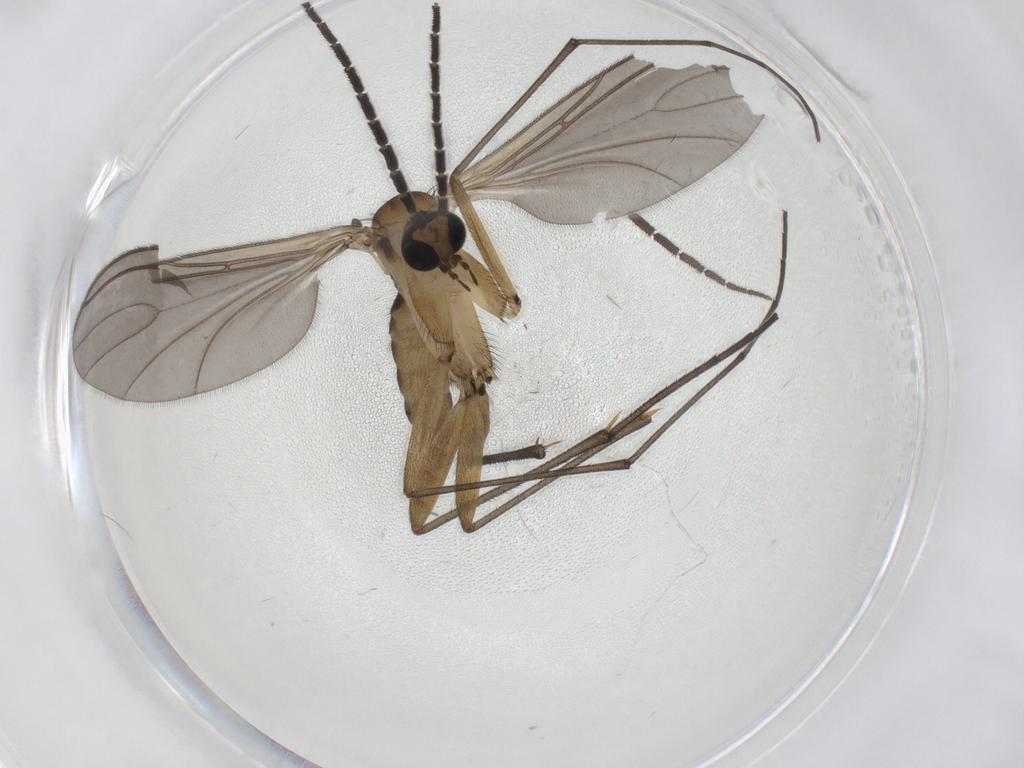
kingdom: Animalia
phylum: Arthropoda
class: Insecta
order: Diptera
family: Sciaridae
